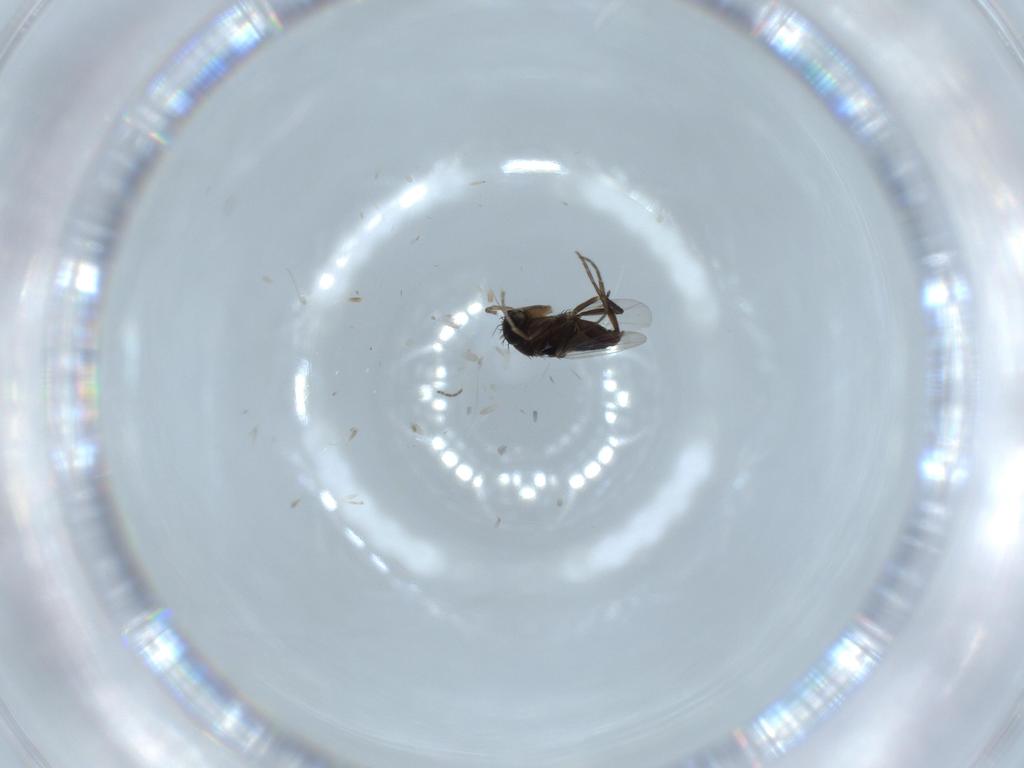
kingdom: Animalia
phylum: Arthropoda
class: Insecta
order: Diptera
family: Phoridae
